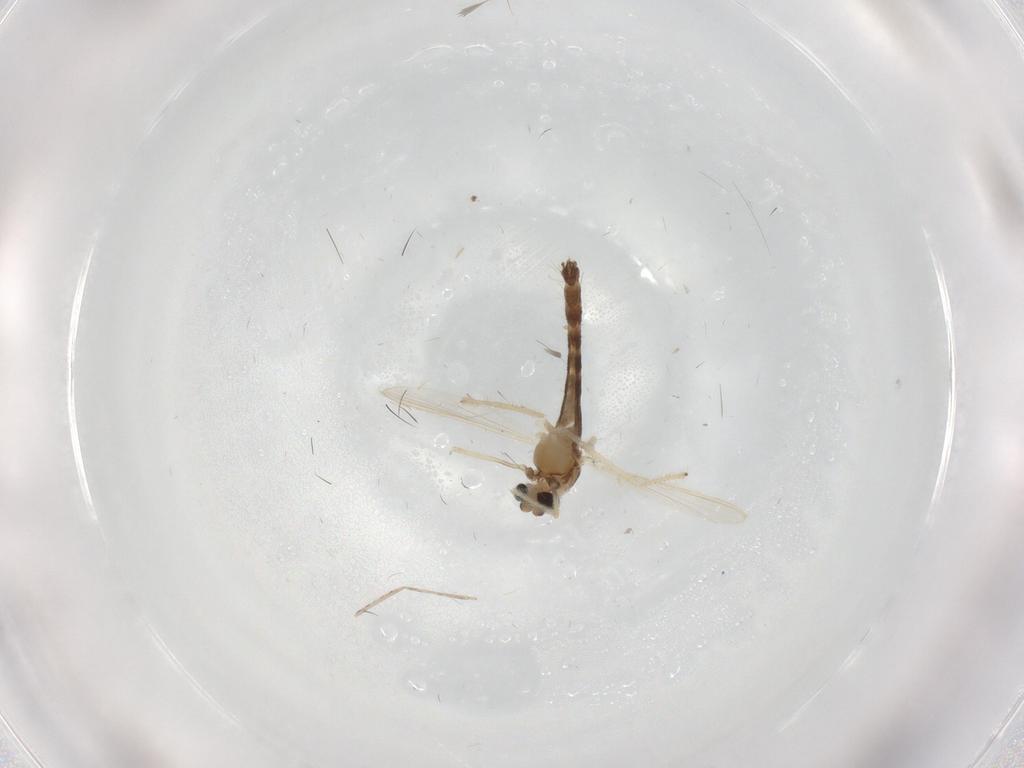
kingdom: Animalia
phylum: Arthropoda
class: Insecta
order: Diptera
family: Chironomidae
